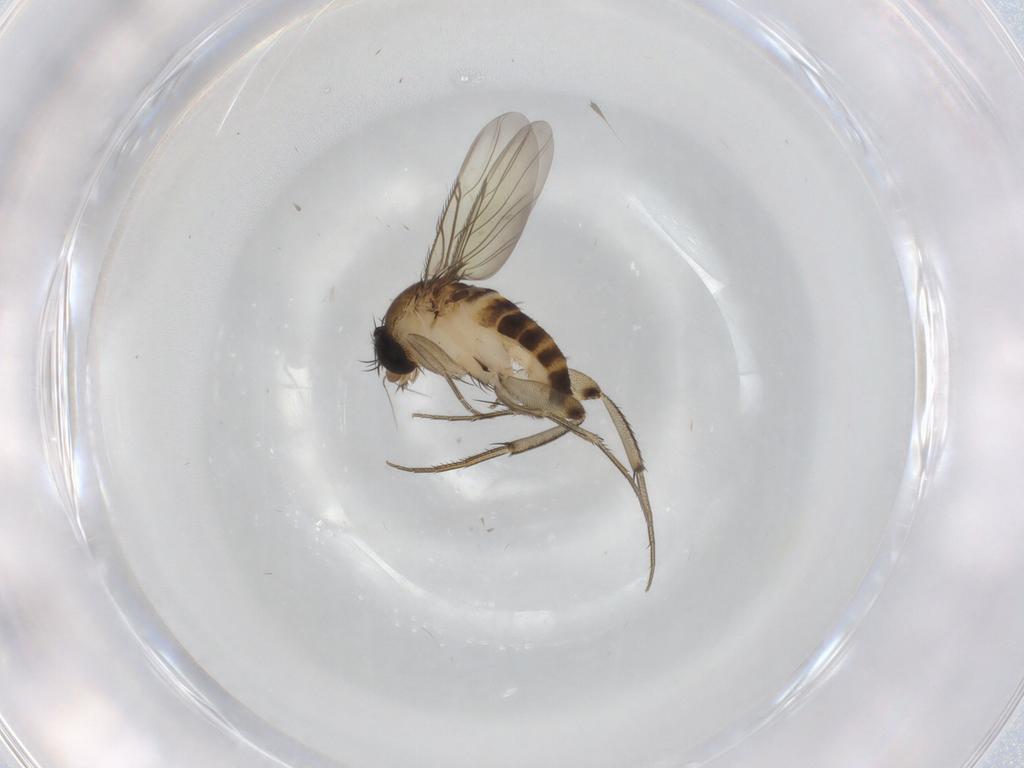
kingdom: Animalia
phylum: Arthropoda
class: Insecta
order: Diptera
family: Phoridae
